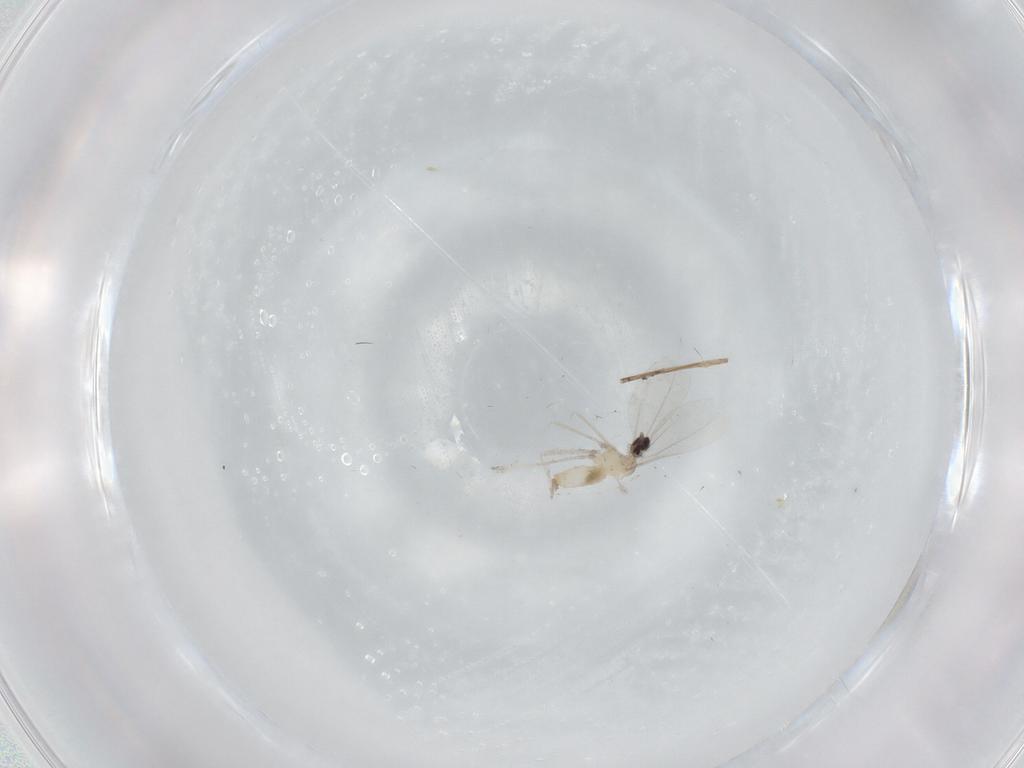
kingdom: Animalia
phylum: Arthropoda
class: Insecta
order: Diptera
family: Cecidomyiidae
